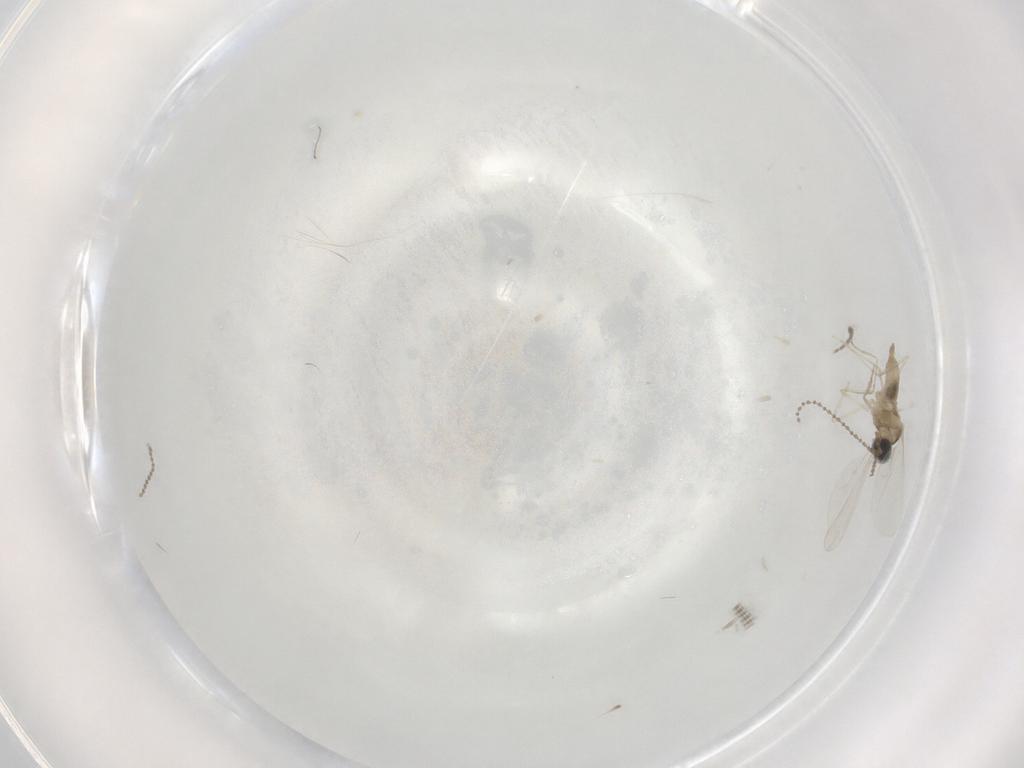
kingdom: Animalia
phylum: Arthropoda
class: Insecta
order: Diptera
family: Cecidomyiidae
